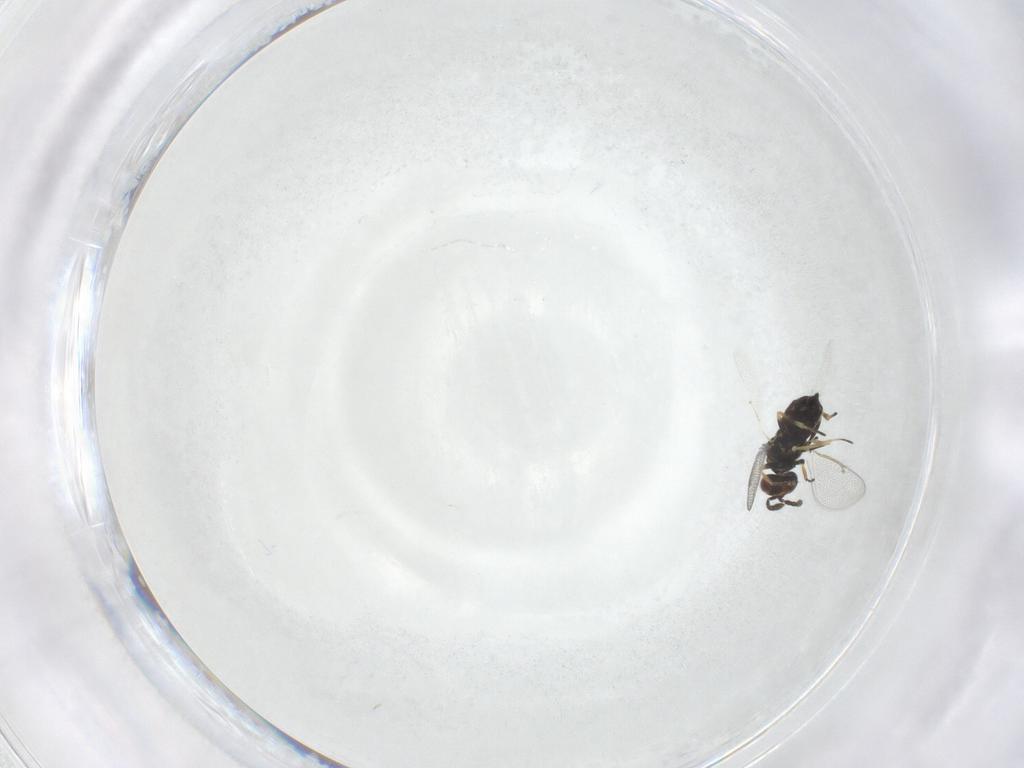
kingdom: Animalia
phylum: Arthropoda
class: Insecta
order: Hymenoptera
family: Eulophidae
